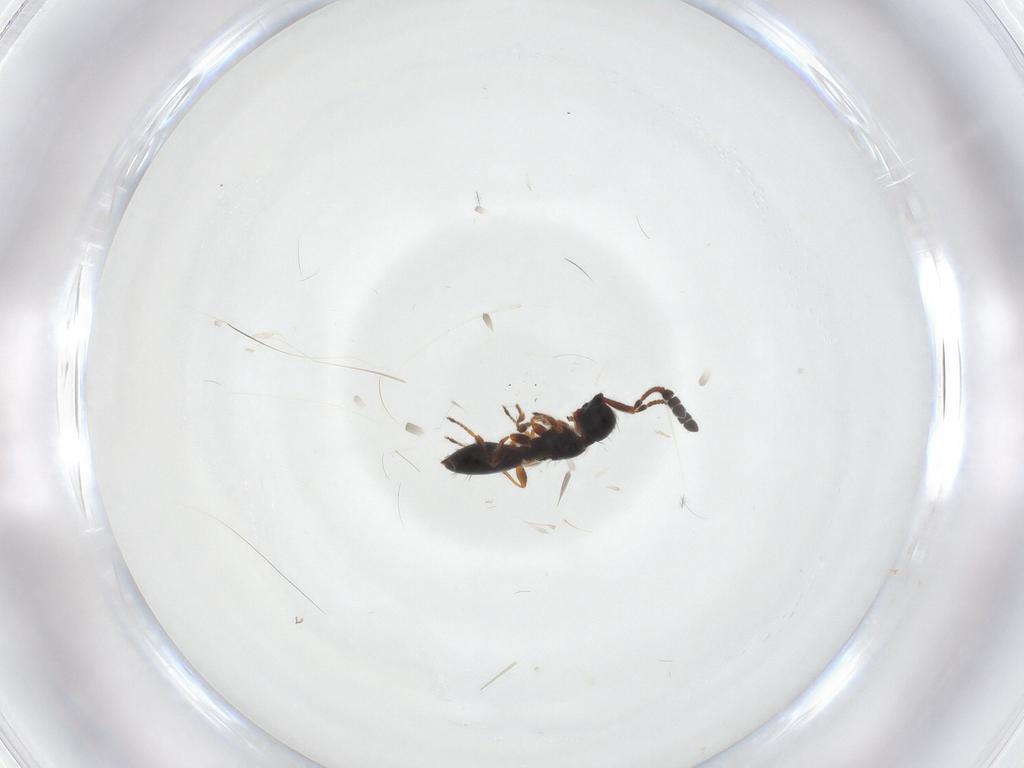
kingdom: Animalia
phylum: Arthropoda
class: Insecta
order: Hymenoptera
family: Diapriidae
